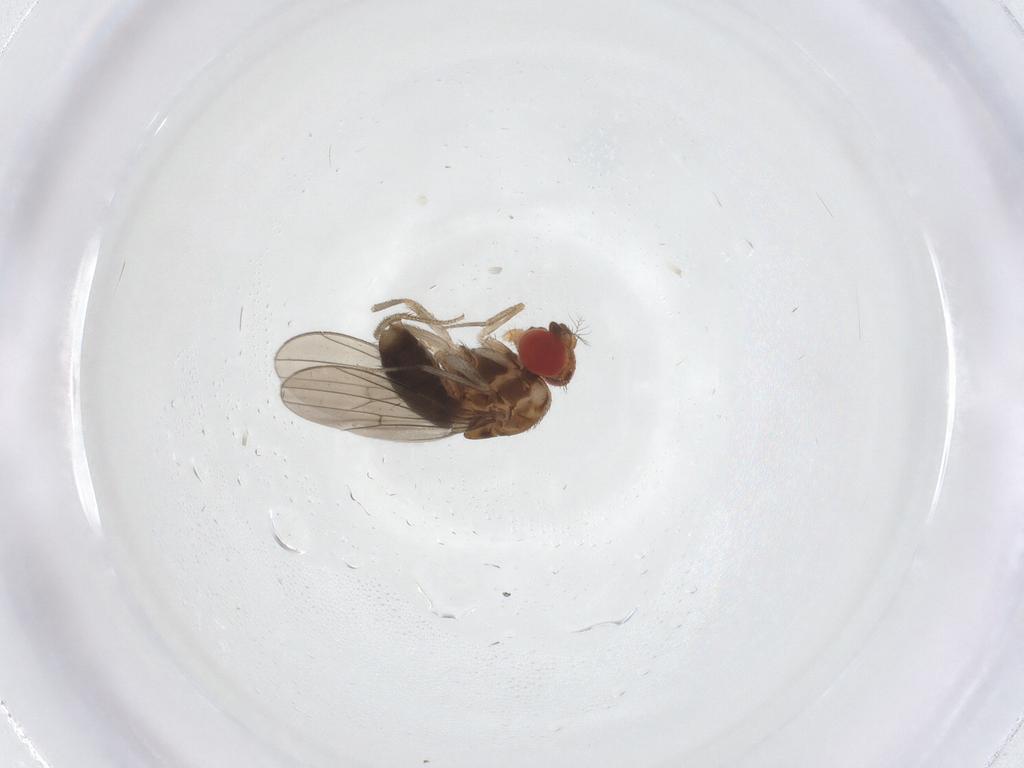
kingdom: Animalia
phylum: Arthropoda
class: Insecta
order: Diptera
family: Drosophilidae
